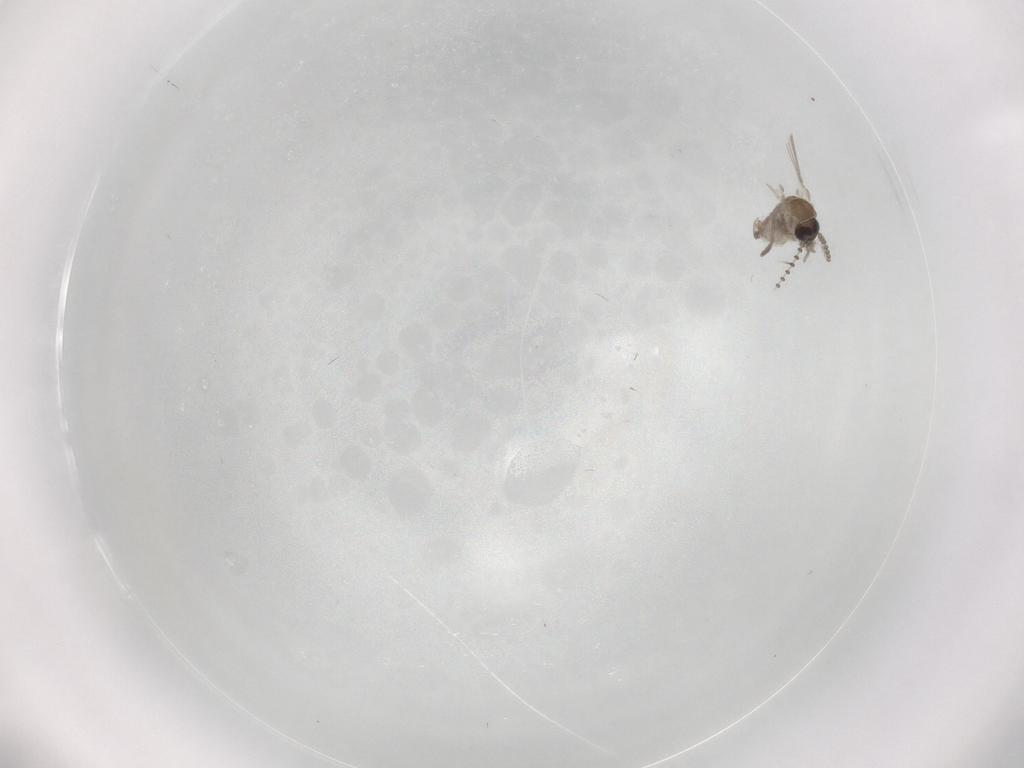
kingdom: Animalia
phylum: Arthropoda
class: Insecta
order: Diptera
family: Psychodidae
